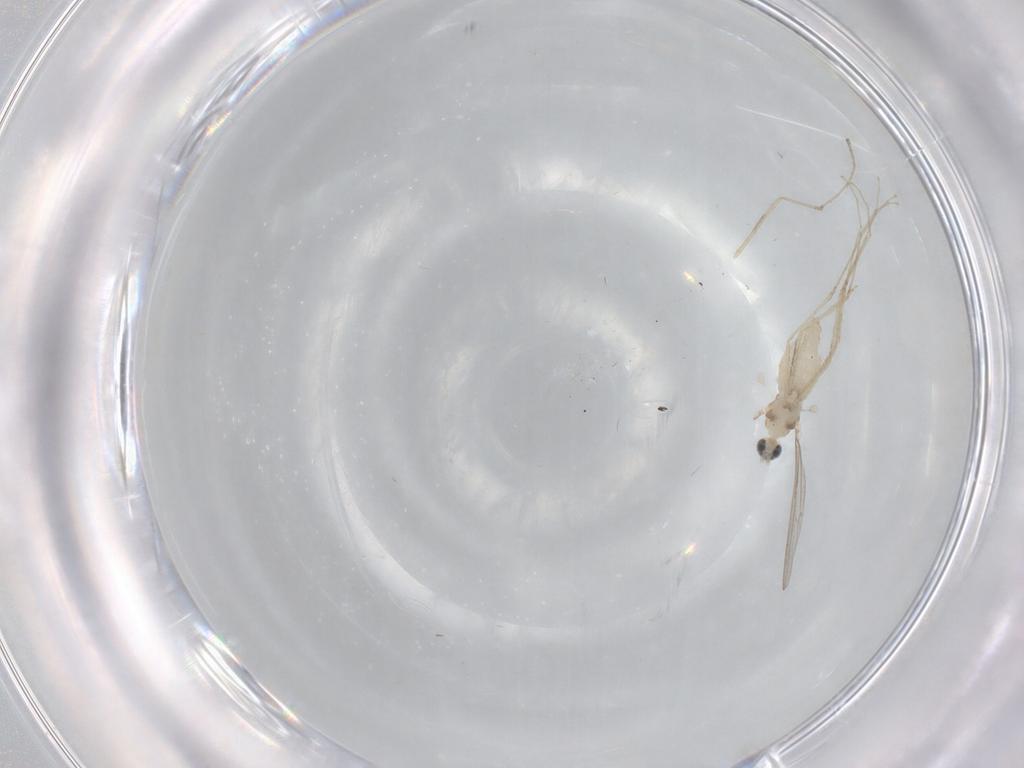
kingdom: Animalia
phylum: Arthropoda
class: Insecta
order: Diptera
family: Cecidomyiidae
